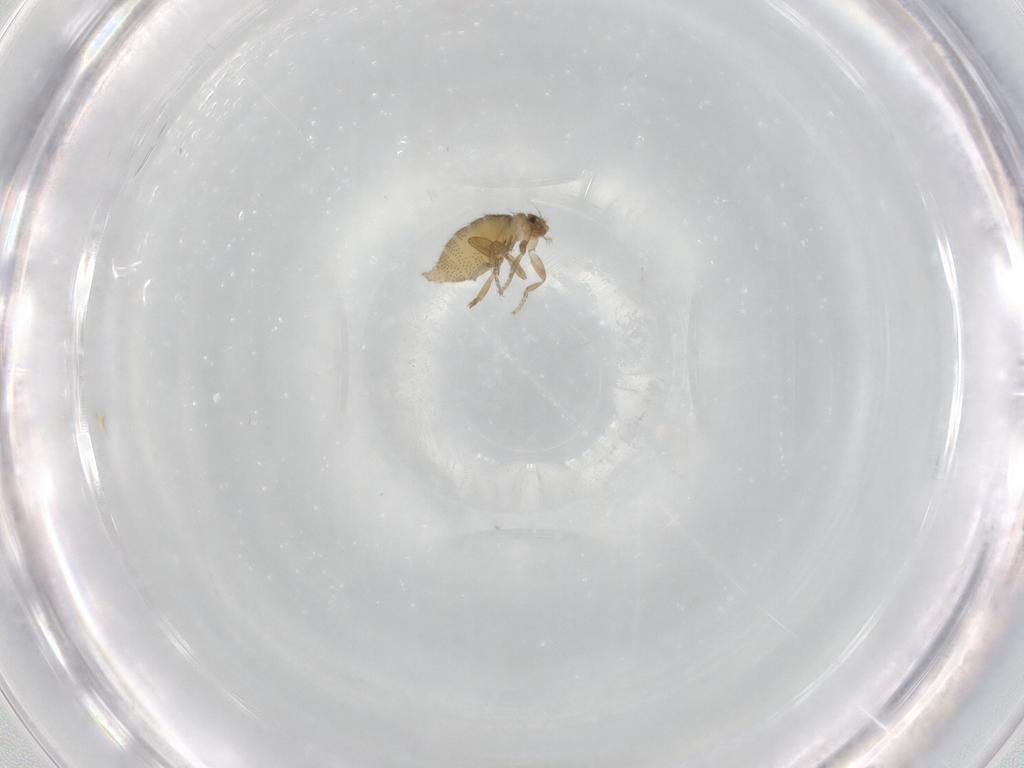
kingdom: Animalia
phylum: Arthropoda
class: Insecta
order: Diptera
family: Phoridae
